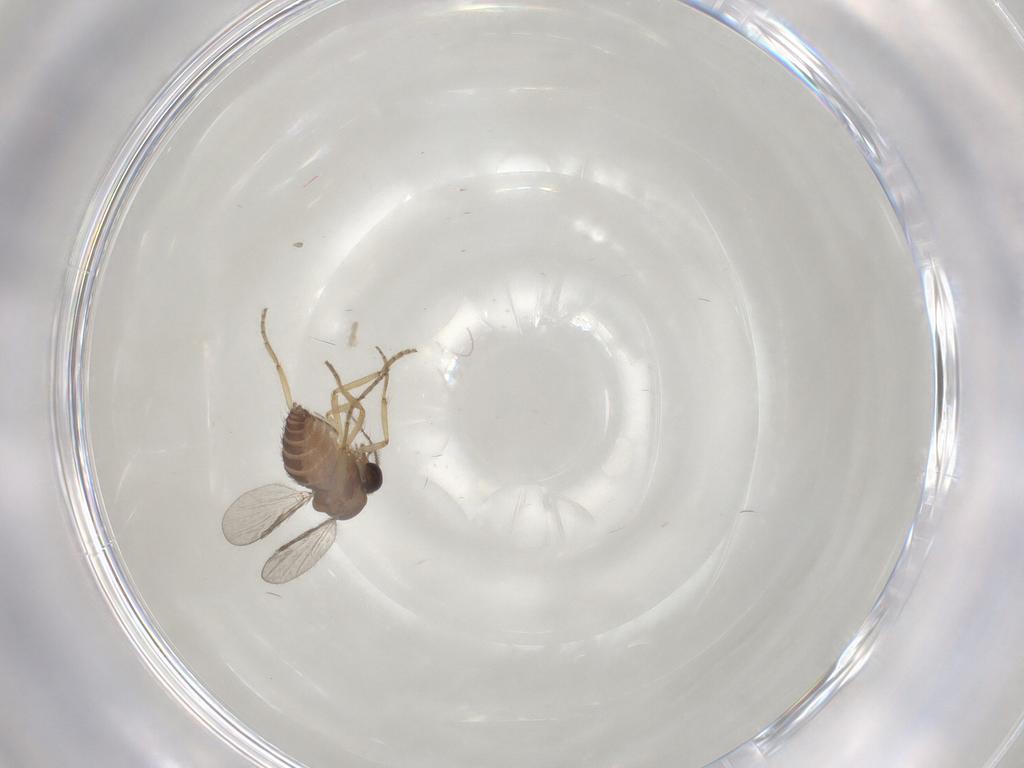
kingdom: Animalia
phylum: Arthropoda
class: Insecta
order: Diptera
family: Ceratopogonidae
